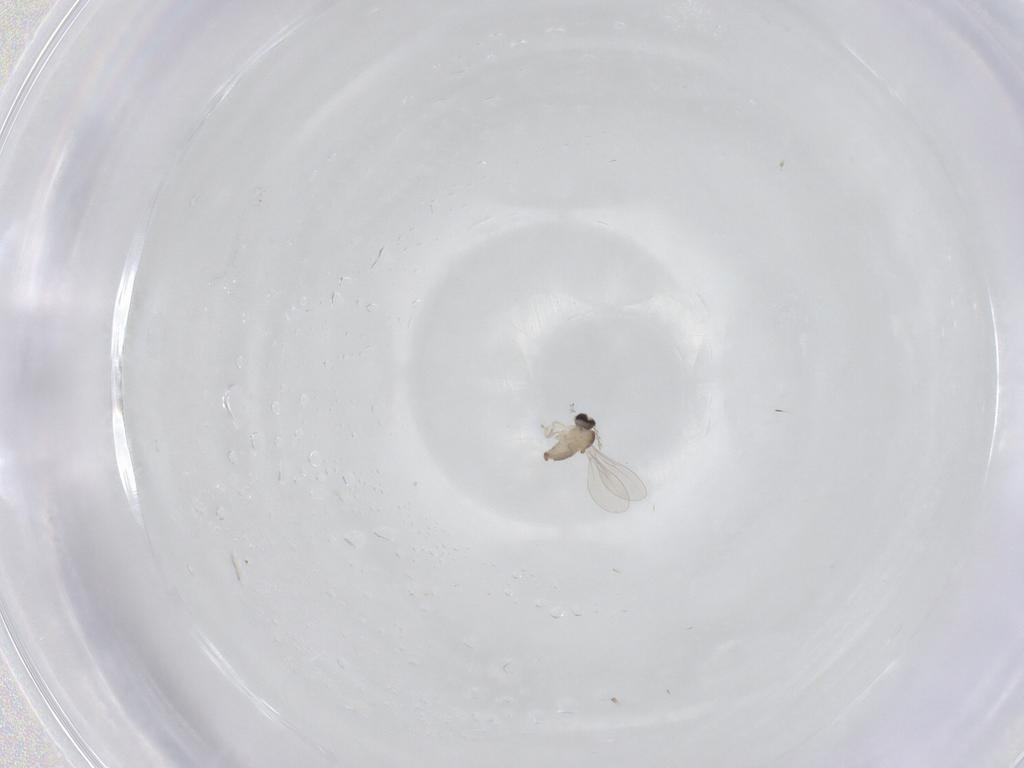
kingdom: Animalia
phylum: Arthropoda
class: Insecta
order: Diptera
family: Cecidomyiidae
